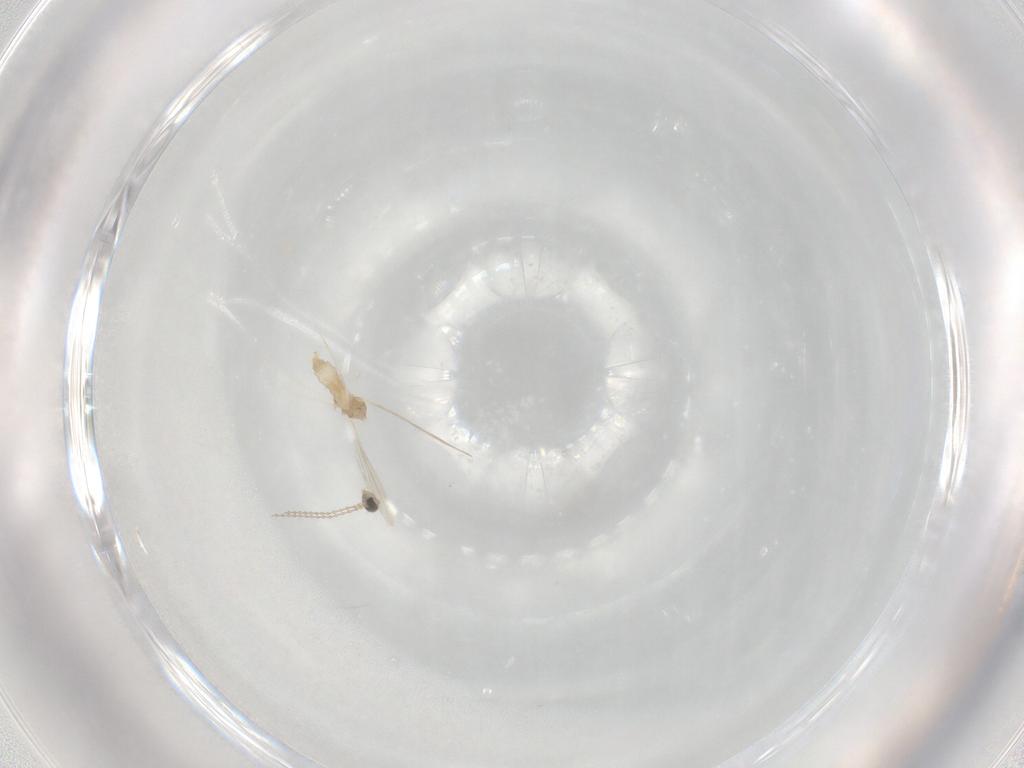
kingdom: Animalia
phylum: Arthropoda
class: Insecta
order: Diptera
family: Cecidomyiidae
